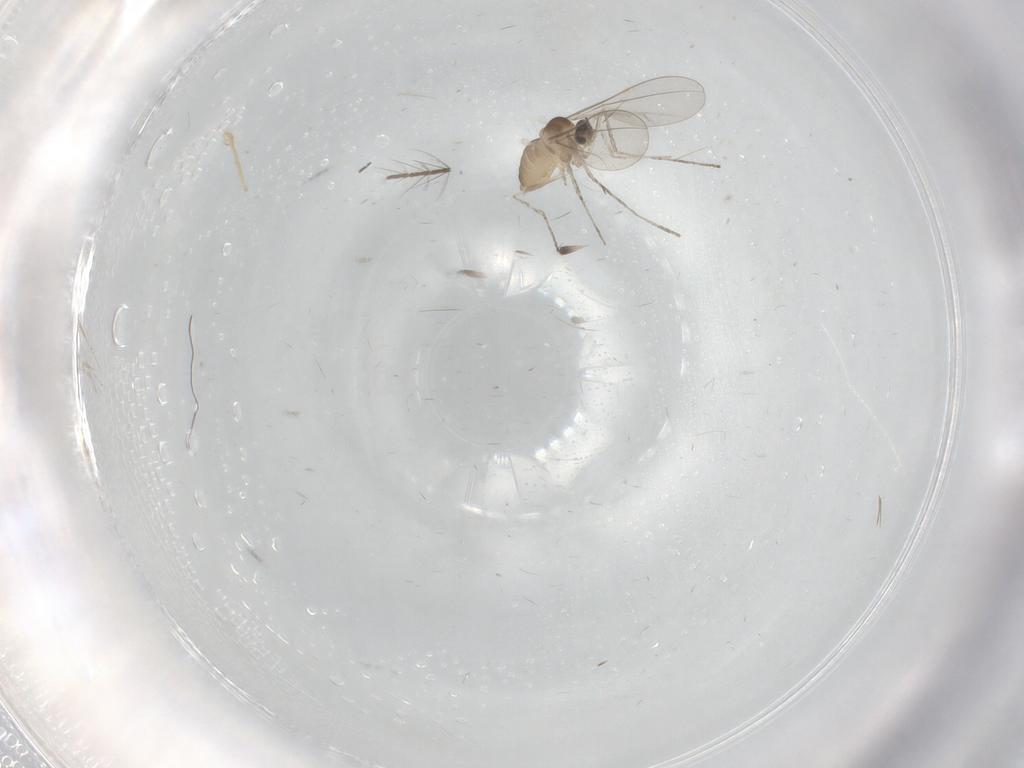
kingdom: Animalia
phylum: Arthropoda
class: Insecta
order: Diptera
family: Cecidomyiidae
